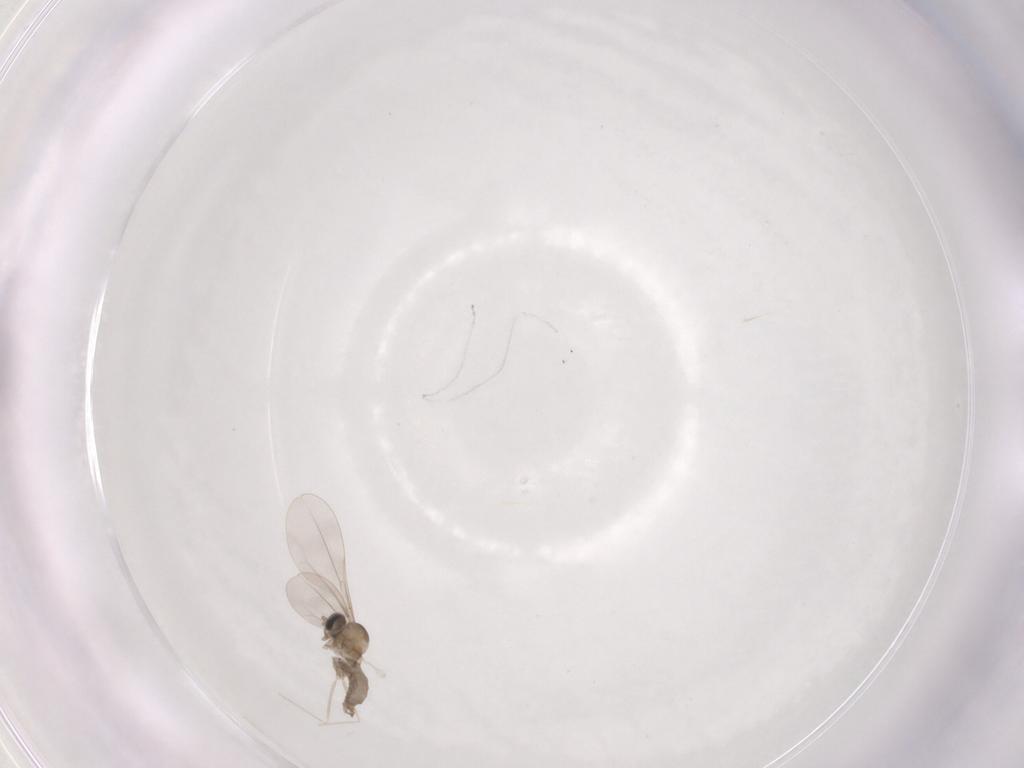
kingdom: Animalia
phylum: Arthropoda
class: Insecta
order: Diptera
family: Cecidomyiidae
